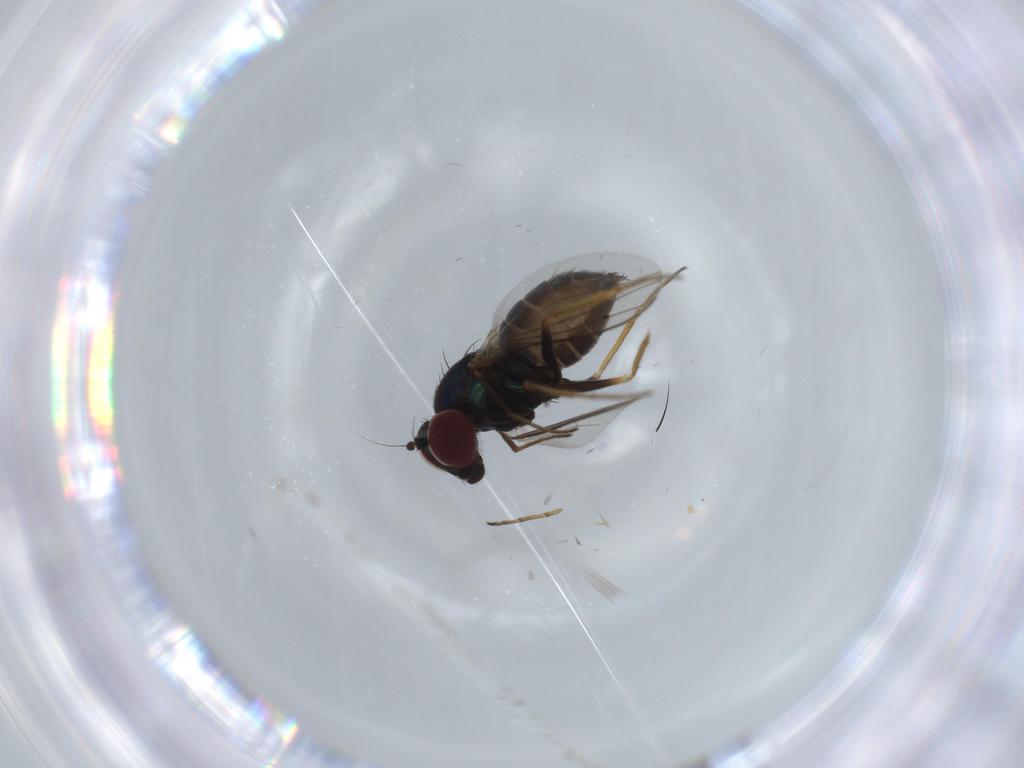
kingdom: Animalia
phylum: Arthropoda
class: Insecta
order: Diptera
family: Dolichopodidae
